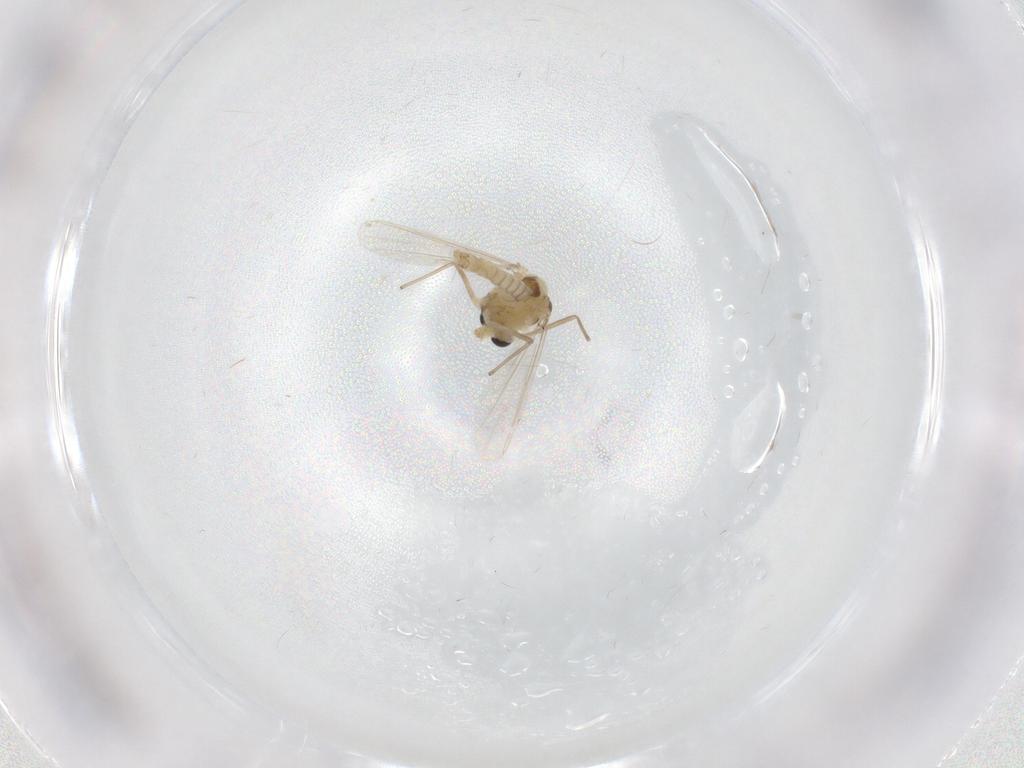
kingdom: Animalia
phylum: Arthropoda
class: Insecta
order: Diptera
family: Chironomidae
